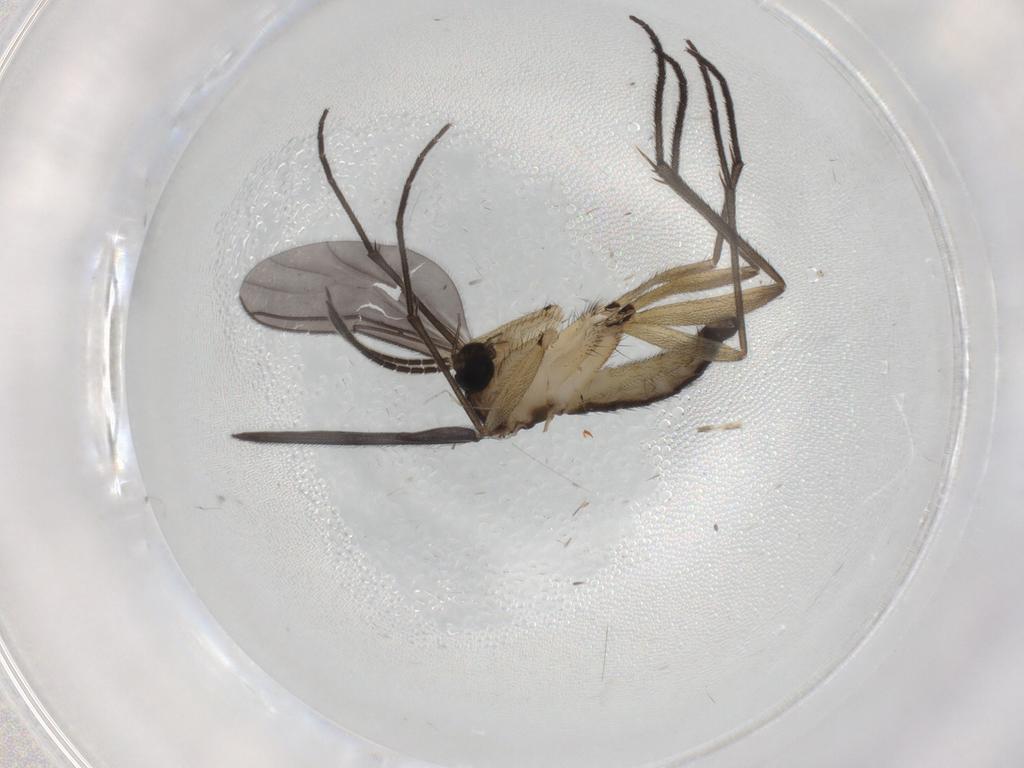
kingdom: Animalia
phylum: Arthropoda
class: Insecta
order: Diptera
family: Sciaridae
